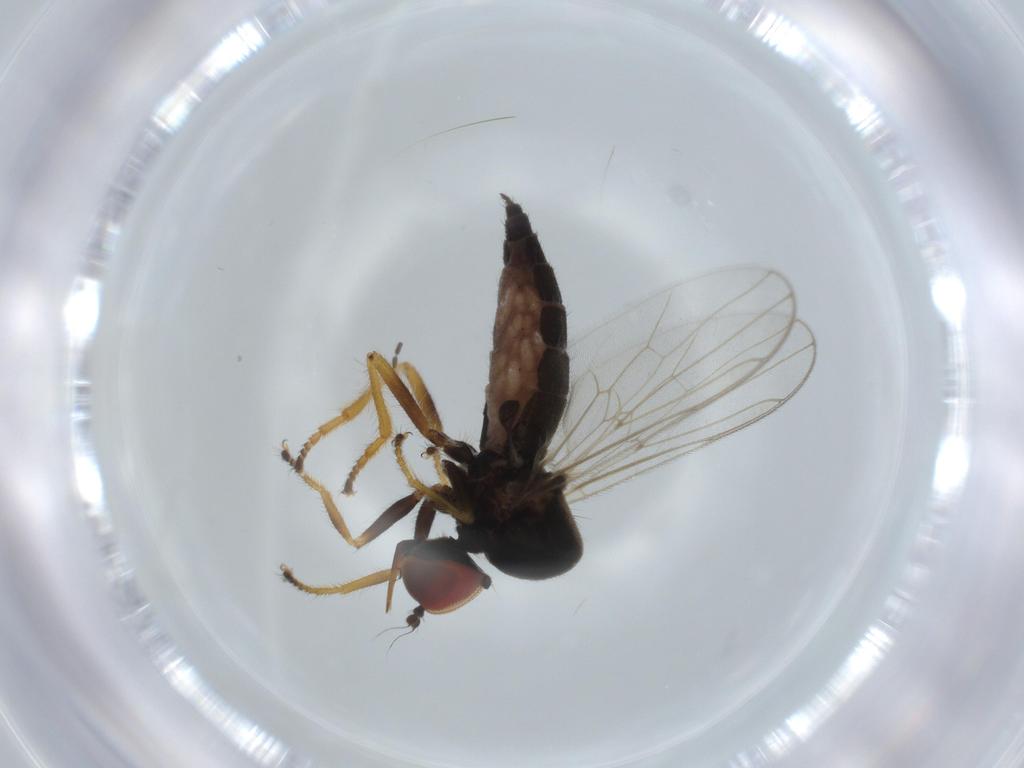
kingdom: Animalia
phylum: Arthropoda
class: Insecta
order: Diptera
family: Cecidomyiidae
